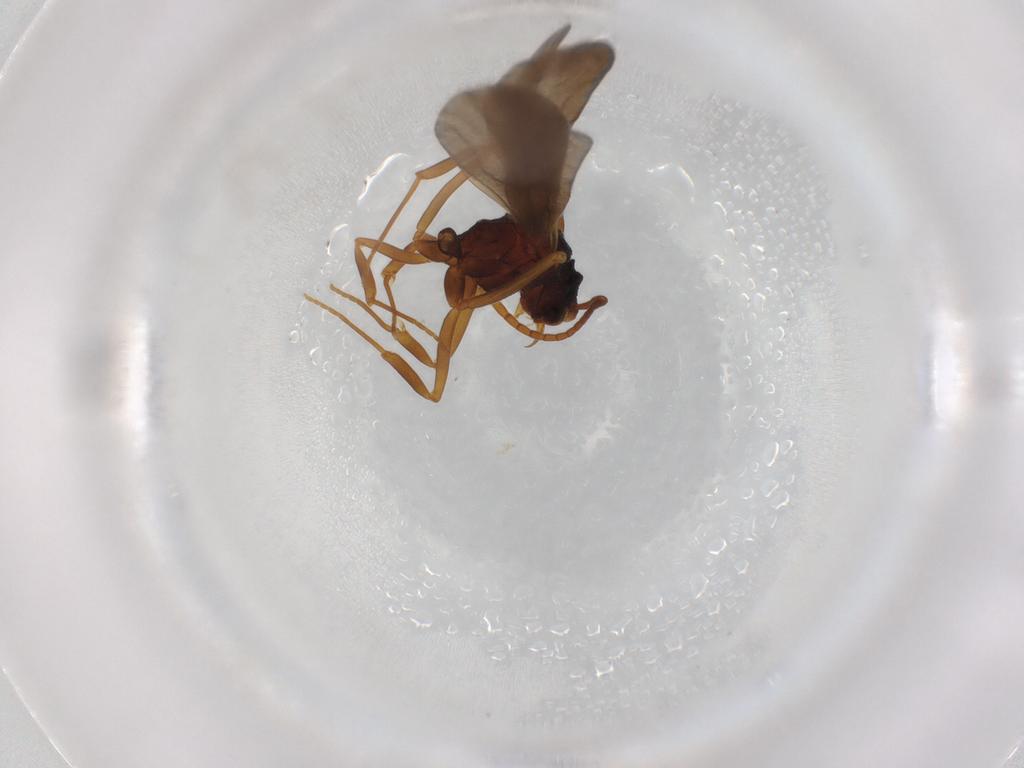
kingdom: Animalia
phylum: Arthropoda
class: Insecta
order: Hymenoptera
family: Formicidae
